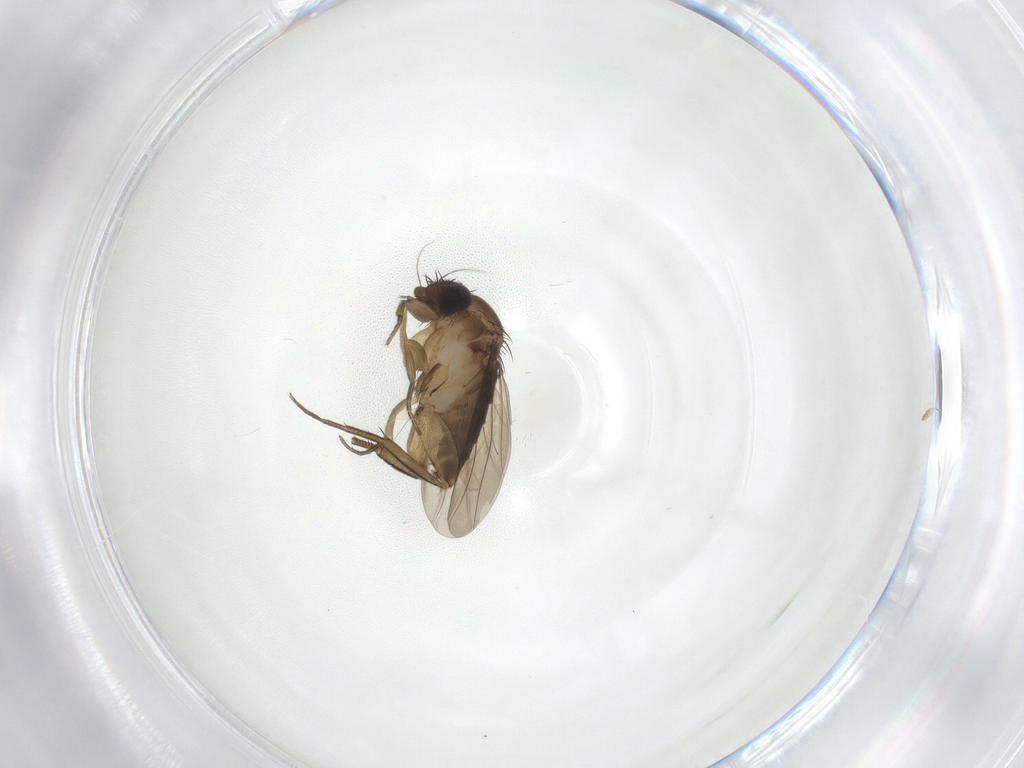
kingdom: Animalia
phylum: Arthropoda
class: Insecta
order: Diptera
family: Phoridae
